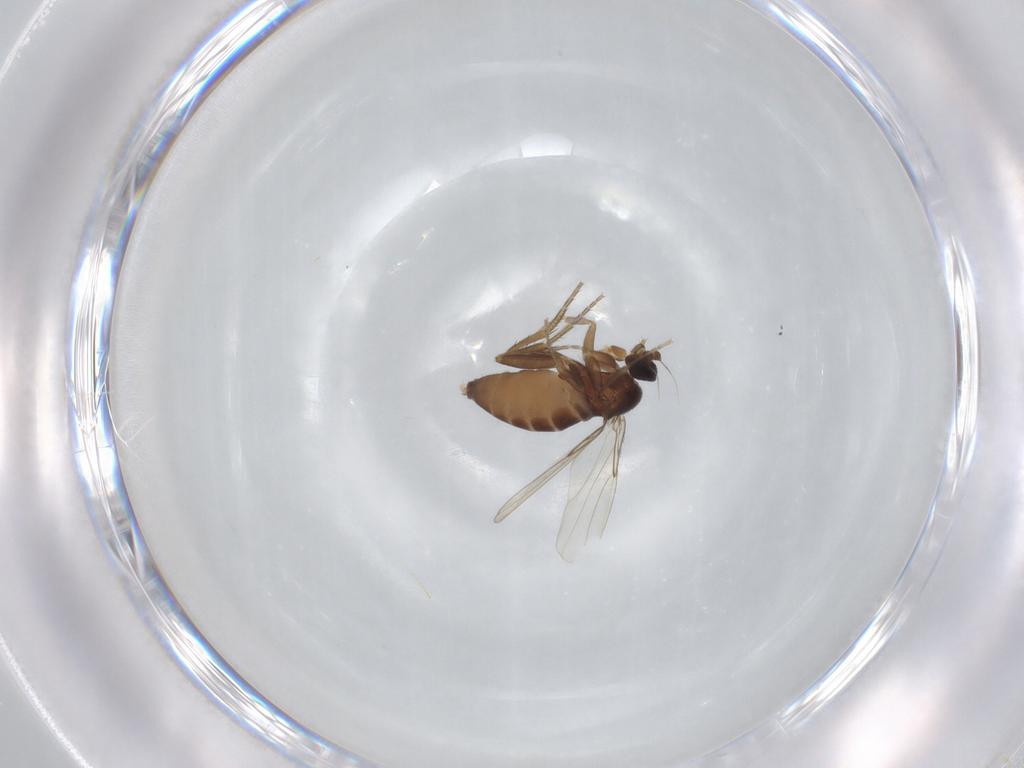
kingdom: Animalia
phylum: Arthropoda
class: Insecta
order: Diptera
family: Phoridae
